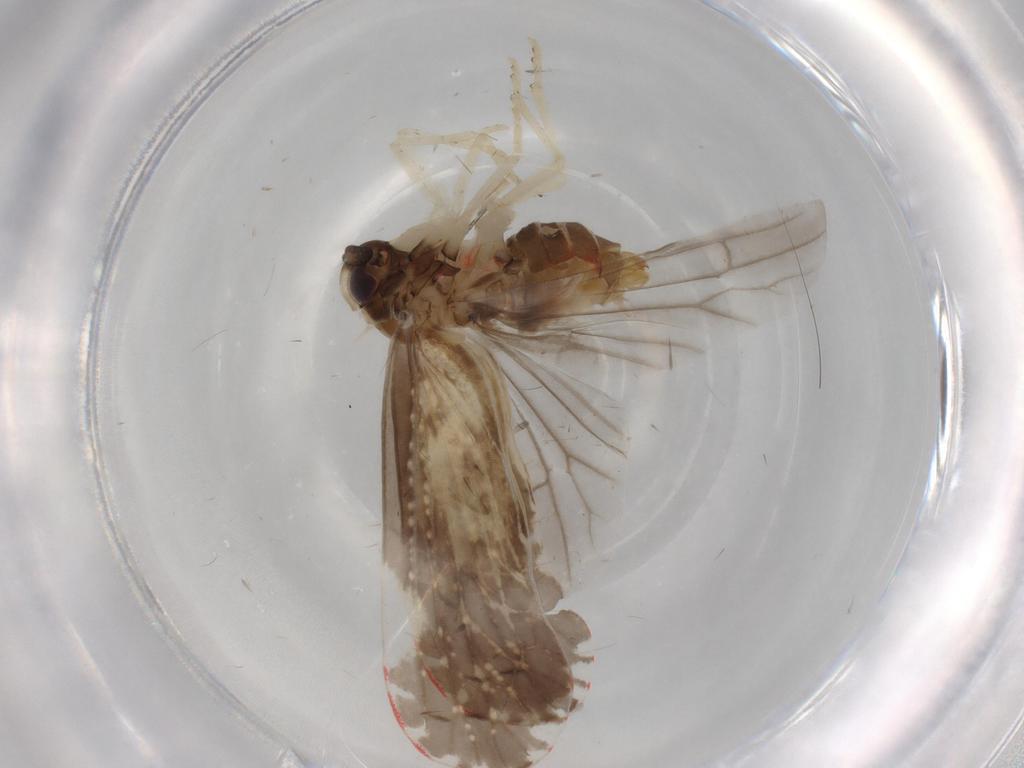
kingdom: Animalia
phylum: Arthropoda
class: Insecta
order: Hemiptera
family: Derbidae
